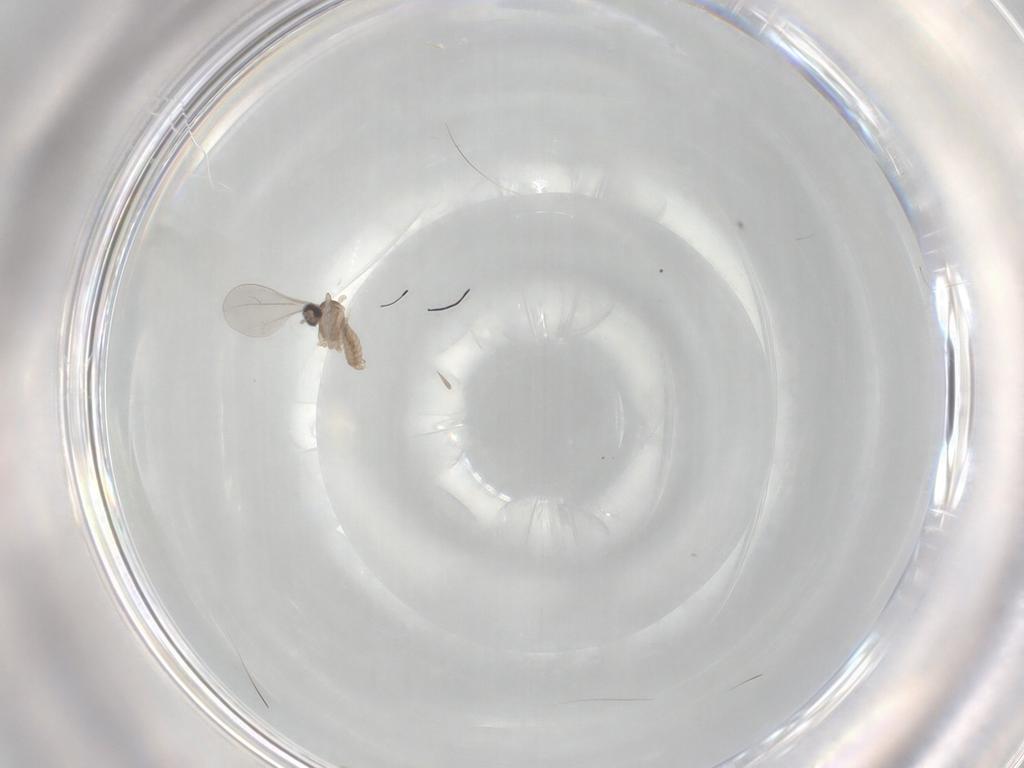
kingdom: Animalia
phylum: Arthropoda
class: Insecta
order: Diptera
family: Cecidomyiidae
